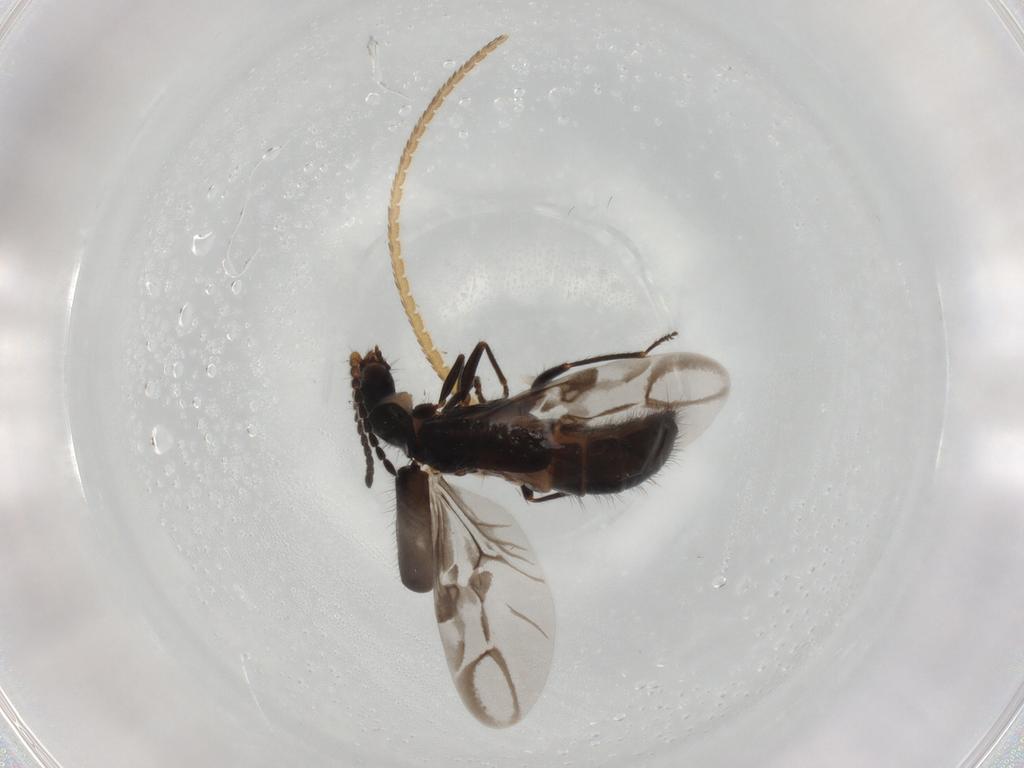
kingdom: Animalia
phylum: Arthropoda
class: Insecta
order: Coleoptera
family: Melyridae
